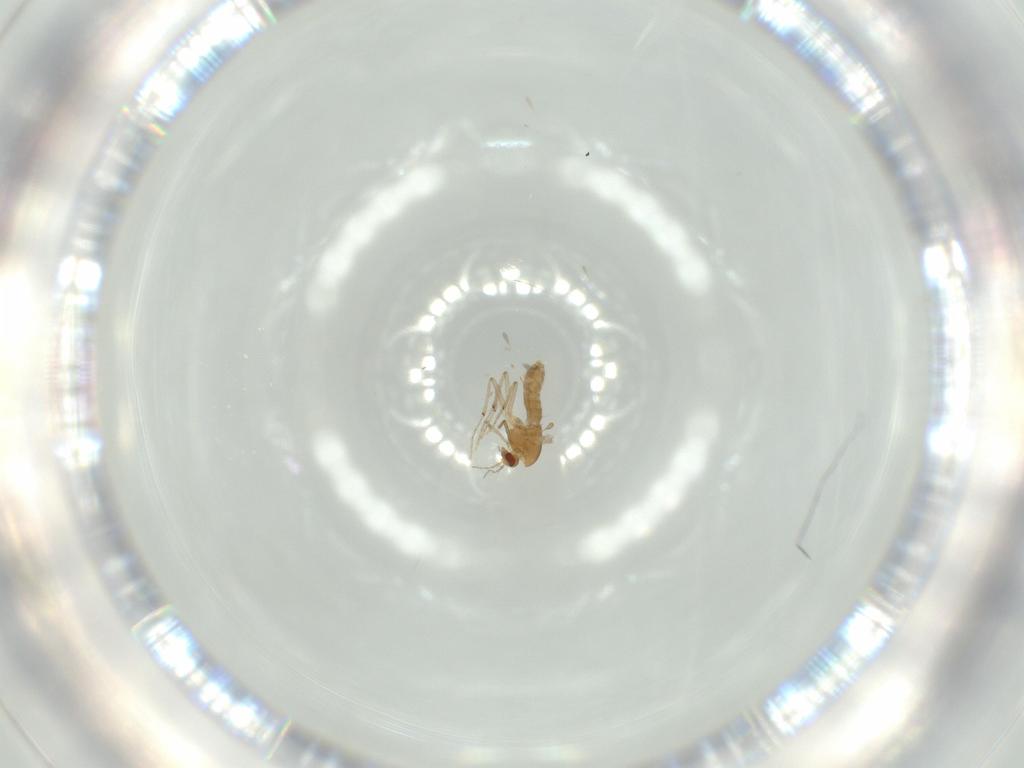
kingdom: Animalia
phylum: Arthropoda
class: Insecta
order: Diptera
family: Chironomidae
